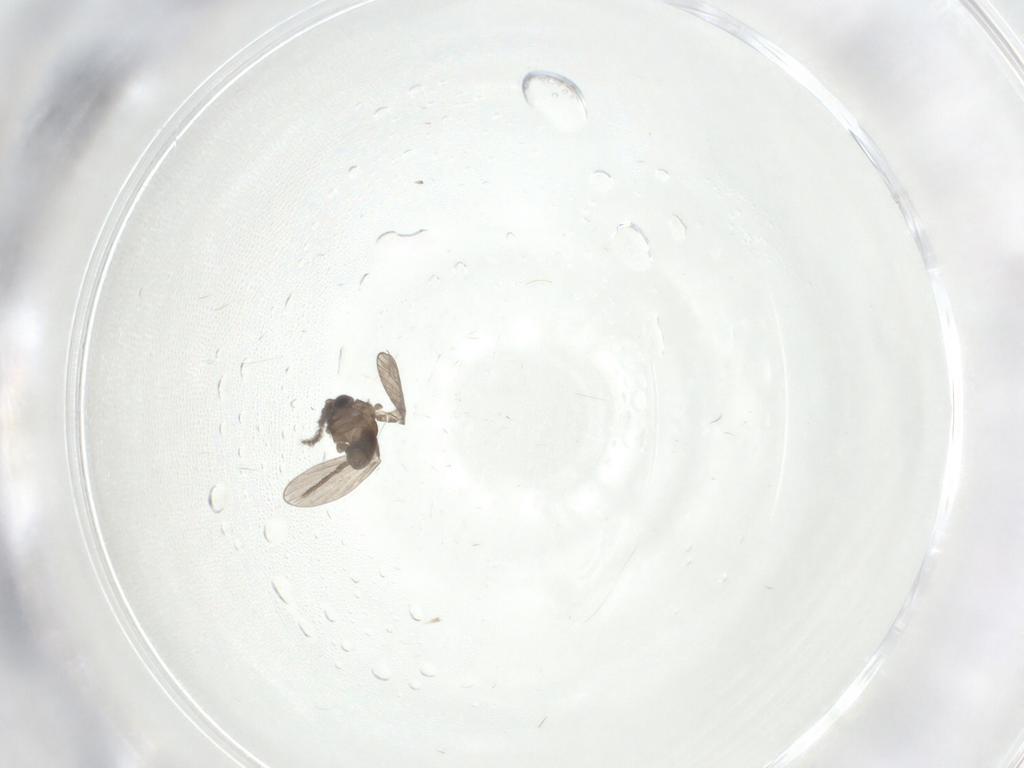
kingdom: Animalia
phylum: Arthropoda
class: Insecta
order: Diptera
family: Psychodidae
